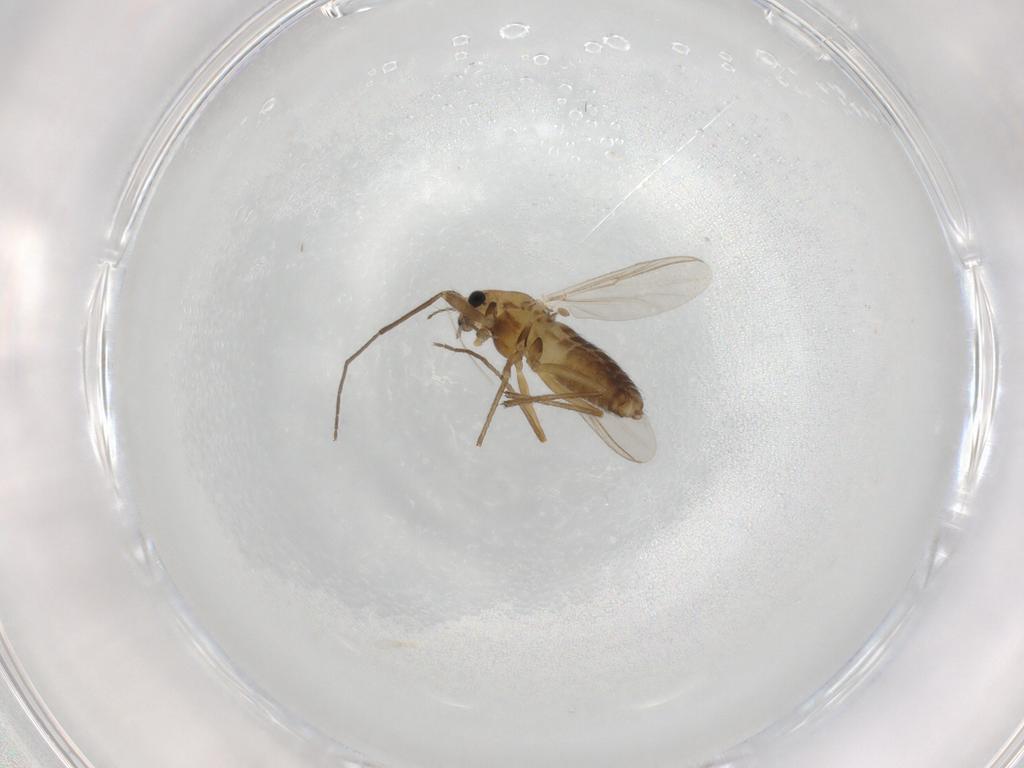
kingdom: Animalia
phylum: Arthropoda
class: Insecta
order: Diptera
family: Chironomidae
